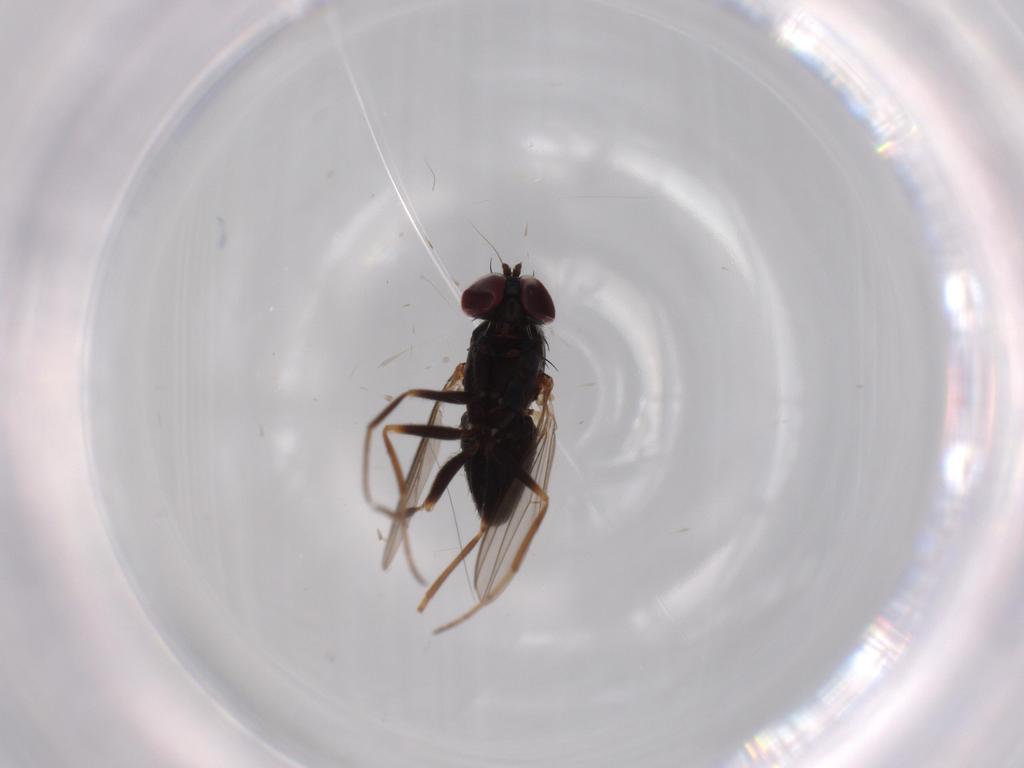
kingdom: Animalia
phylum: Arthropoda
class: Insecta
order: Diptera
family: Dolichopodidae
